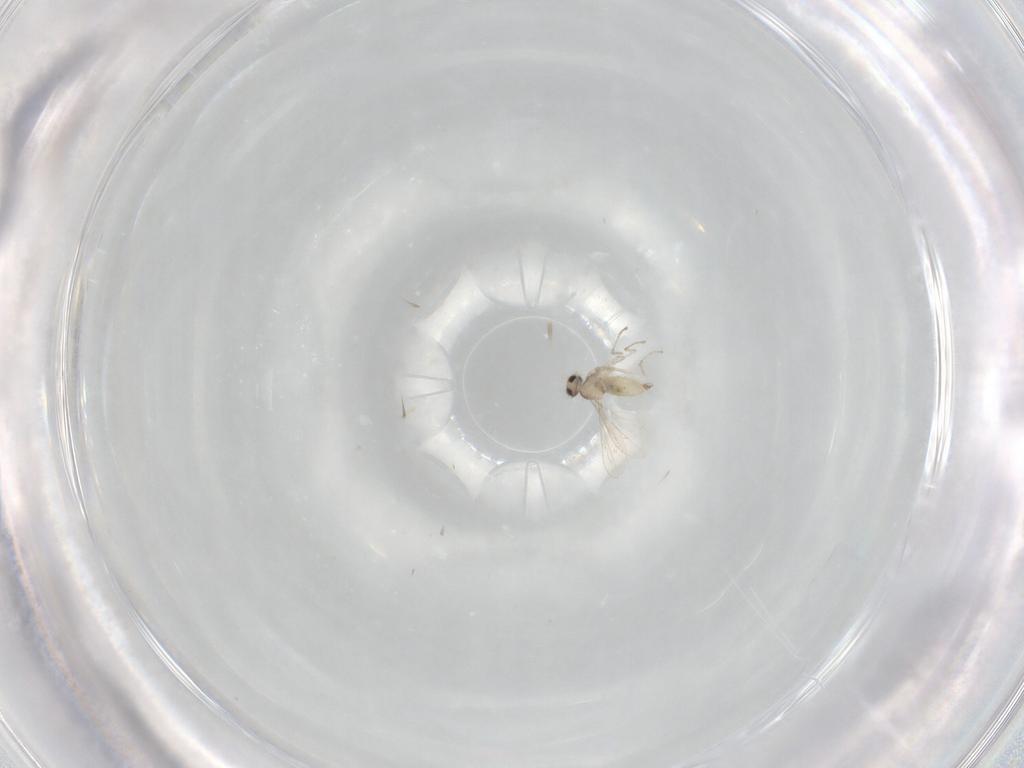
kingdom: Animalia
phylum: Arthropoda
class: Insecta
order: Diptera
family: Cecidomyiidae
